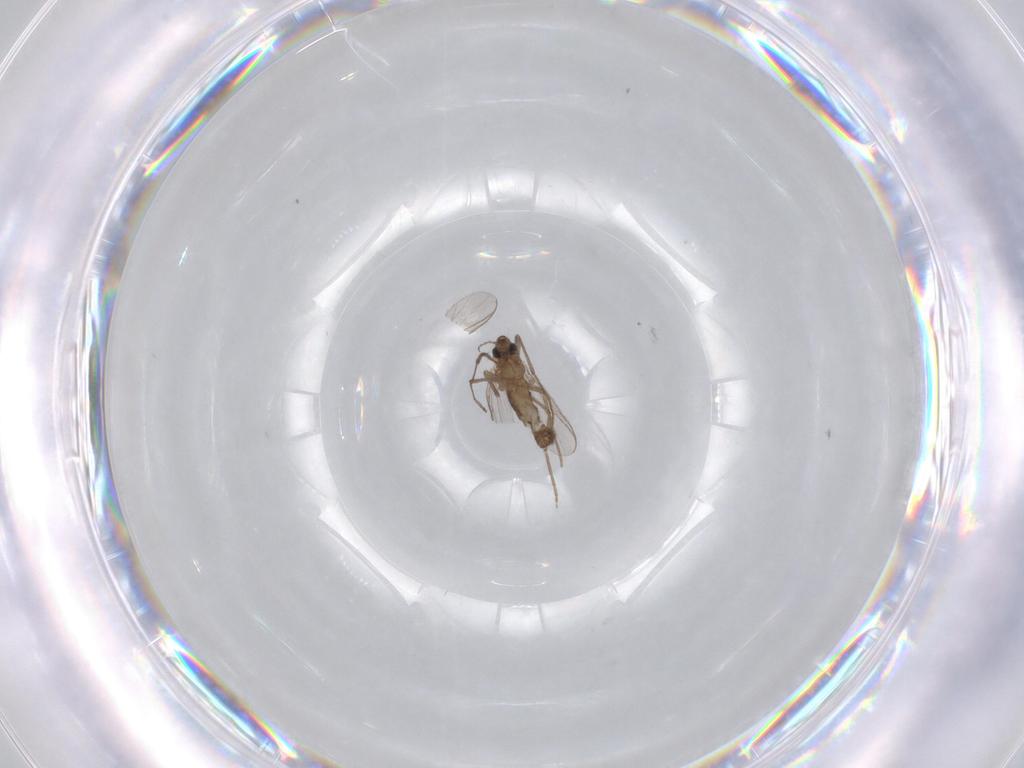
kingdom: Animalia
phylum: Arthropoda
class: Insecta
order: Diptera
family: Chironomidae
